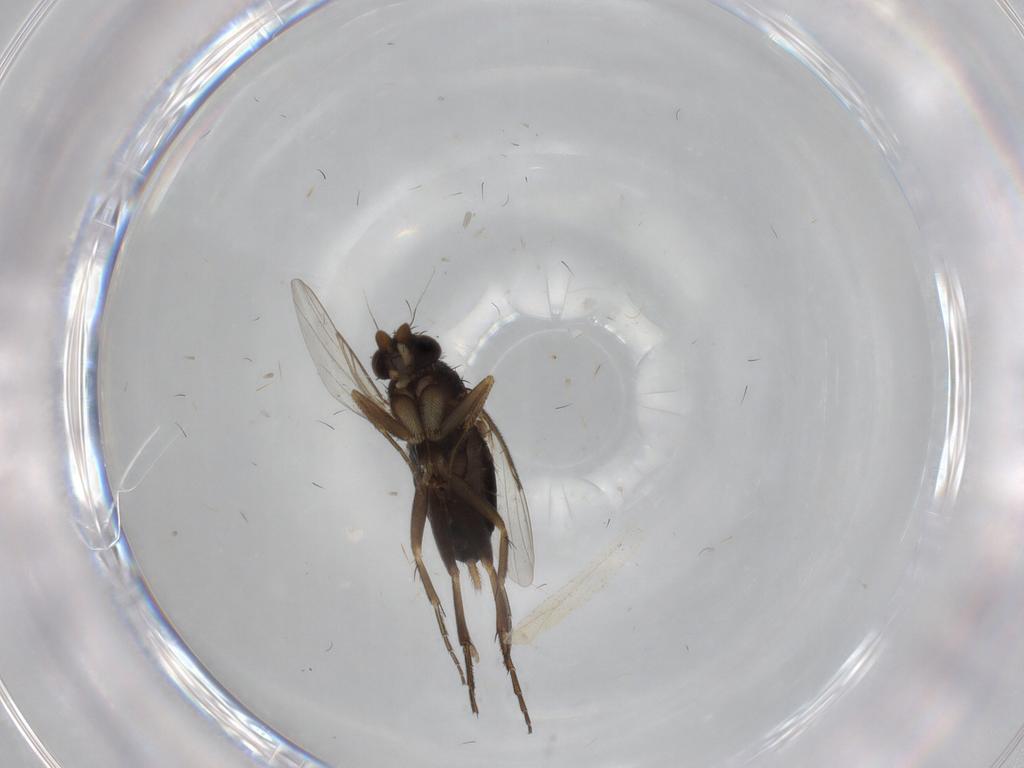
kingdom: Animalia
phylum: Arthropoda
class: Insecta
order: Diptera
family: Phoridae
